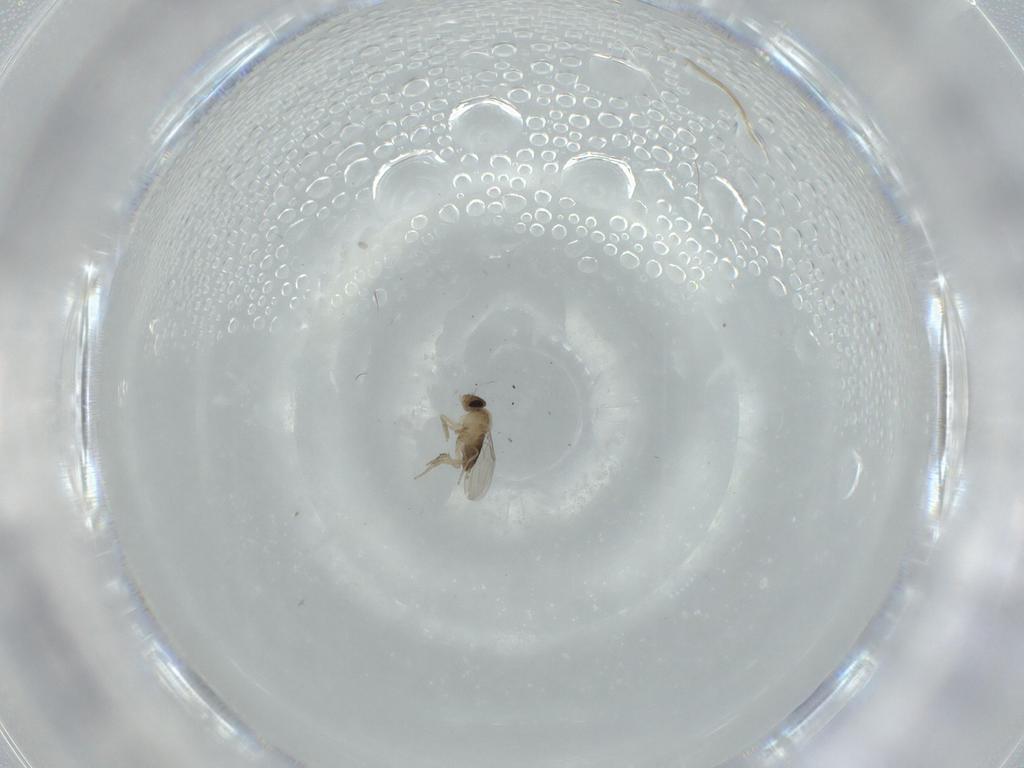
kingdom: Animalia
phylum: Arthropoda
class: Insecta
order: Diptera
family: Phoridae
